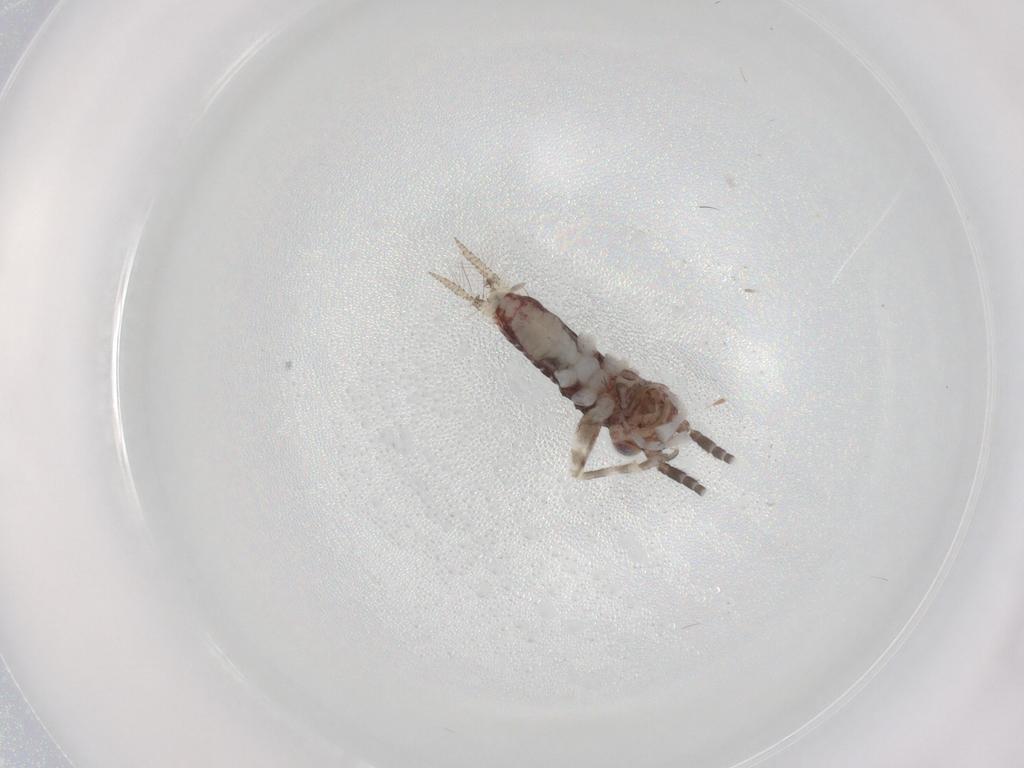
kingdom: Animalia
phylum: Arthropoda
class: Insecta
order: Orthoptera
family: Trigonidiidae
